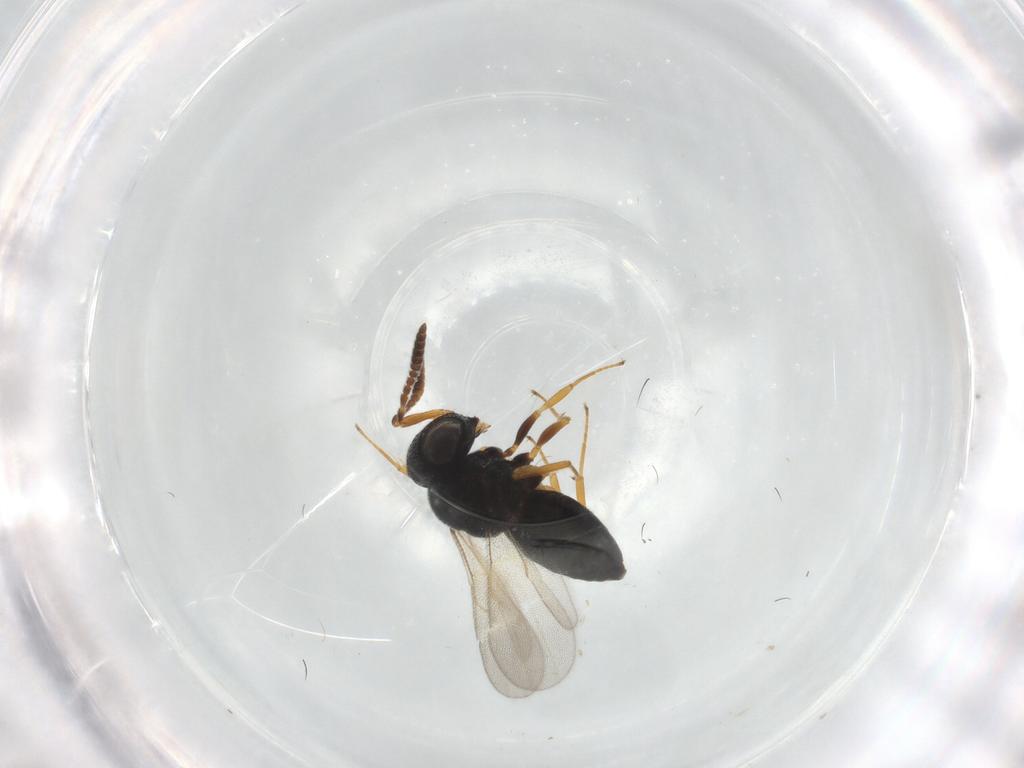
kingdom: Animalia
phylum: Arthropoda
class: Insecta
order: Hymenoptera
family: Scelionidae
